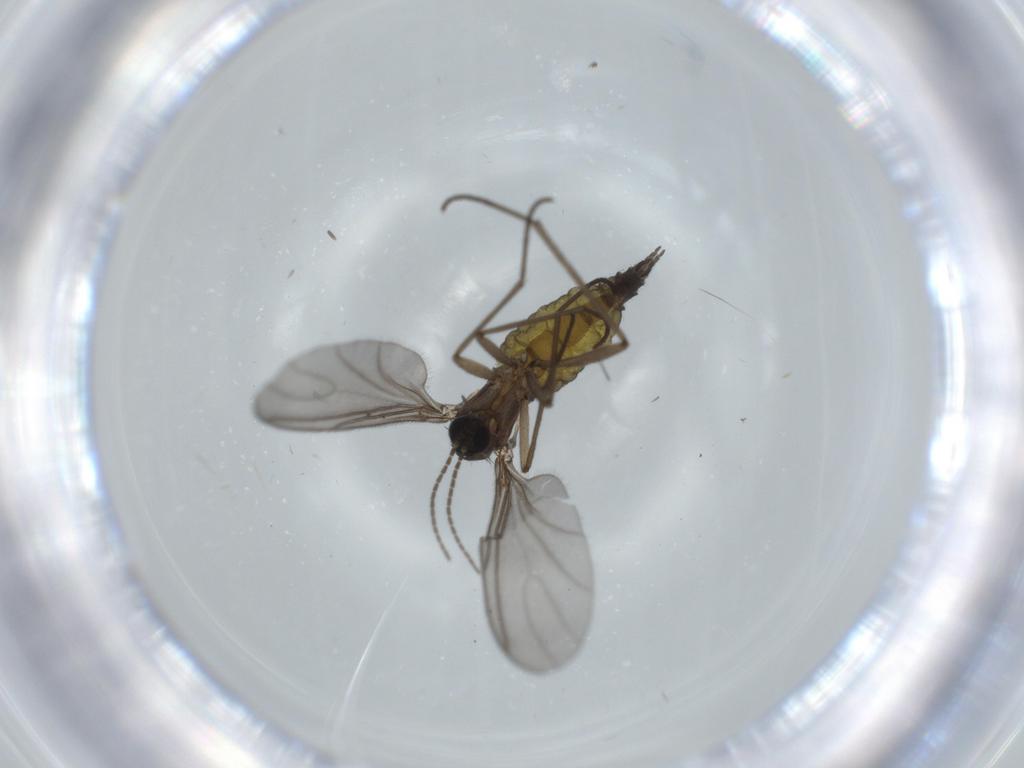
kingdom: Animalia
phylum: Arthropoda
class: Insecta
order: Diptera
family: Sciaridae
